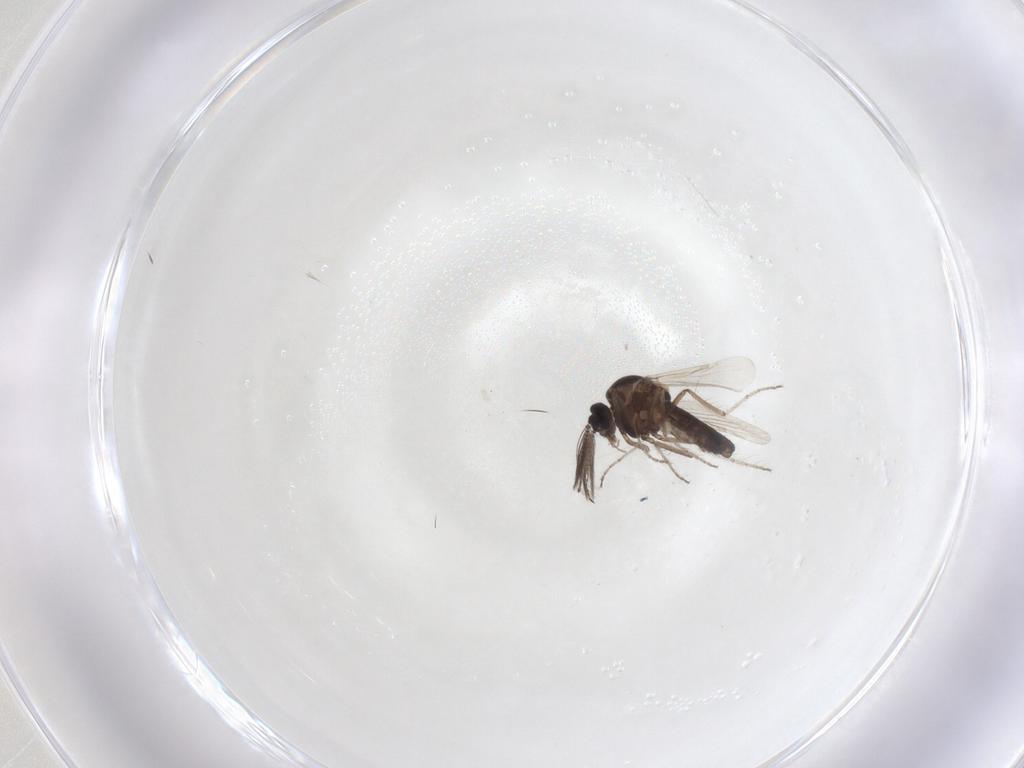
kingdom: Animalia
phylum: Arthropoda
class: Insecta
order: Diptera
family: Ceratopogonidae
